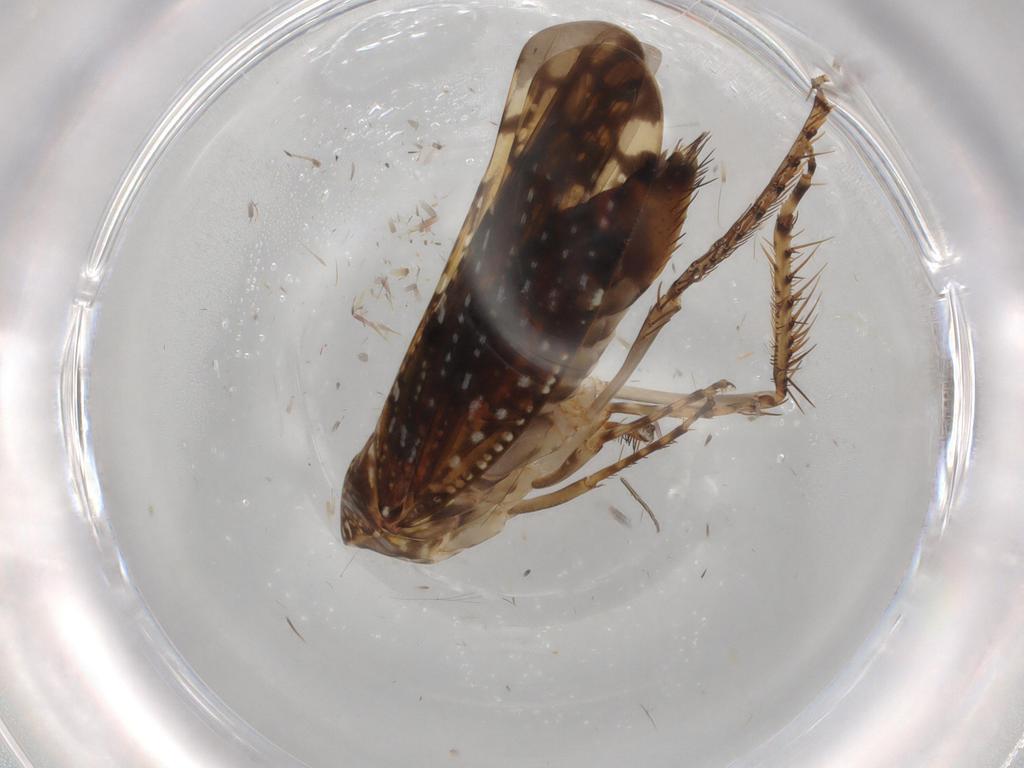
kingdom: Animalia
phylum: Arthropoda
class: Insecta
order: Hemiptera
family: Cicadellidae
